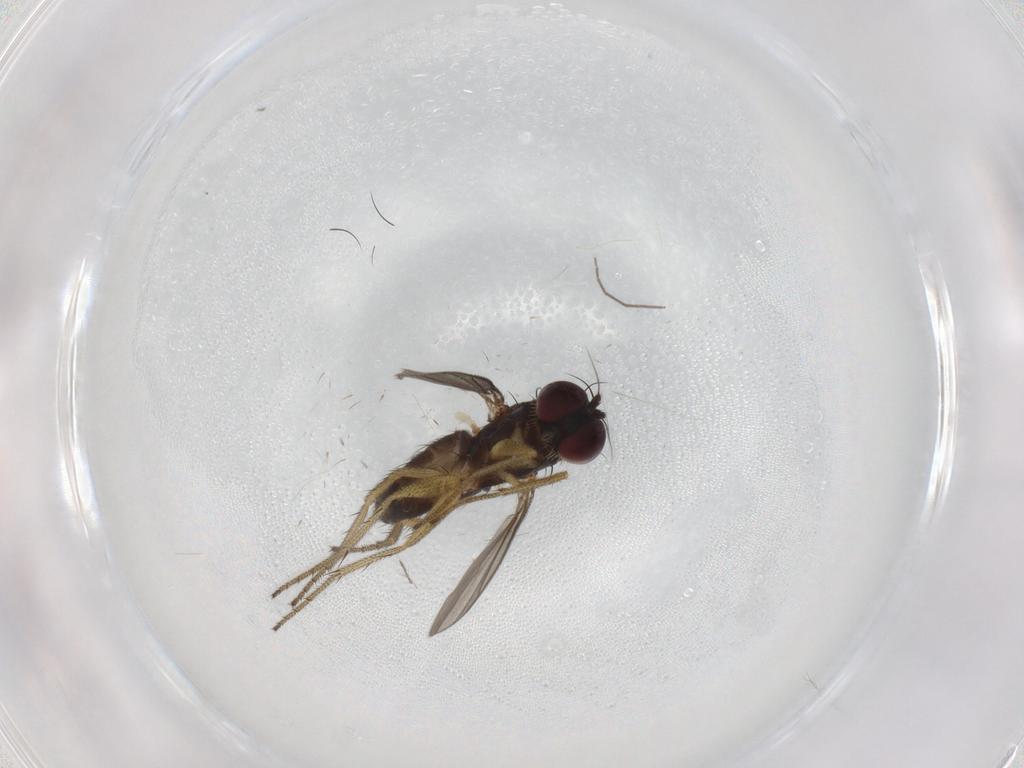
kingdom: Animalia
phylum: Arthropoda
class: Insecta
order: Diptera
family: Dolichopodidae
